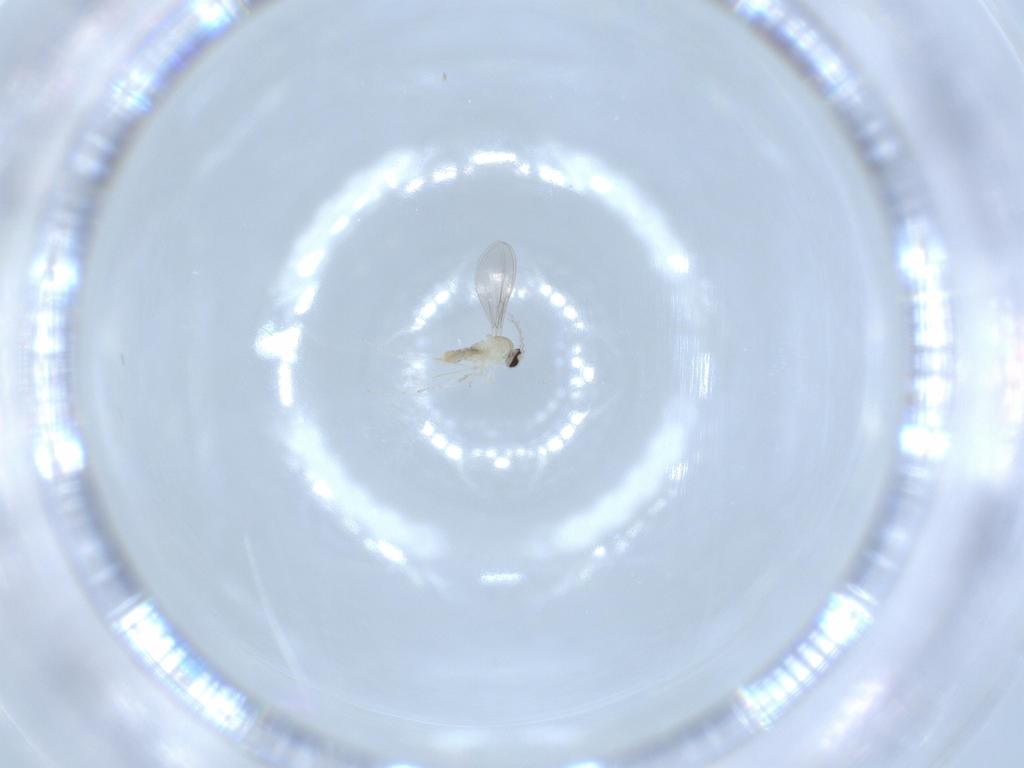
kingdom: Animalia
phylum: Arthropoda
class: Insecta
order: Diptera
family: Cecidomyiidae
